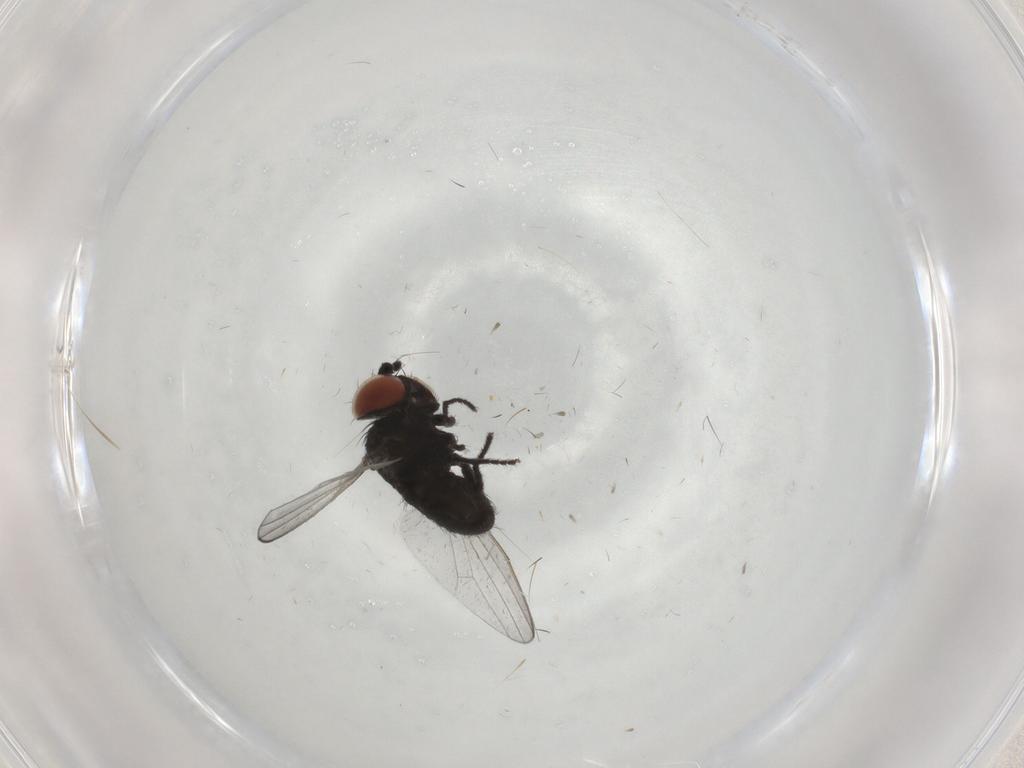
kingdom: Animalia
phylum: Arthropoda
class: Insecta
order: Diptera
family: Milichiidae
